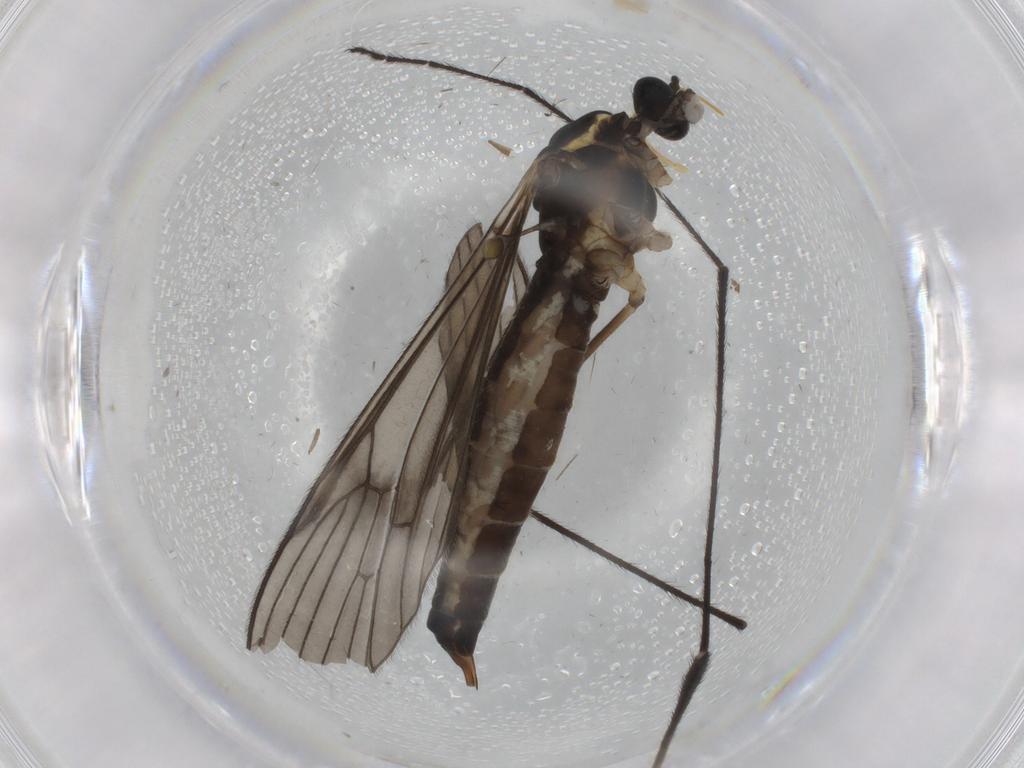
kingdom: Animalia
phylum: Arthropoda
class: Insecta
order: Diptera
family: Limoniidae
